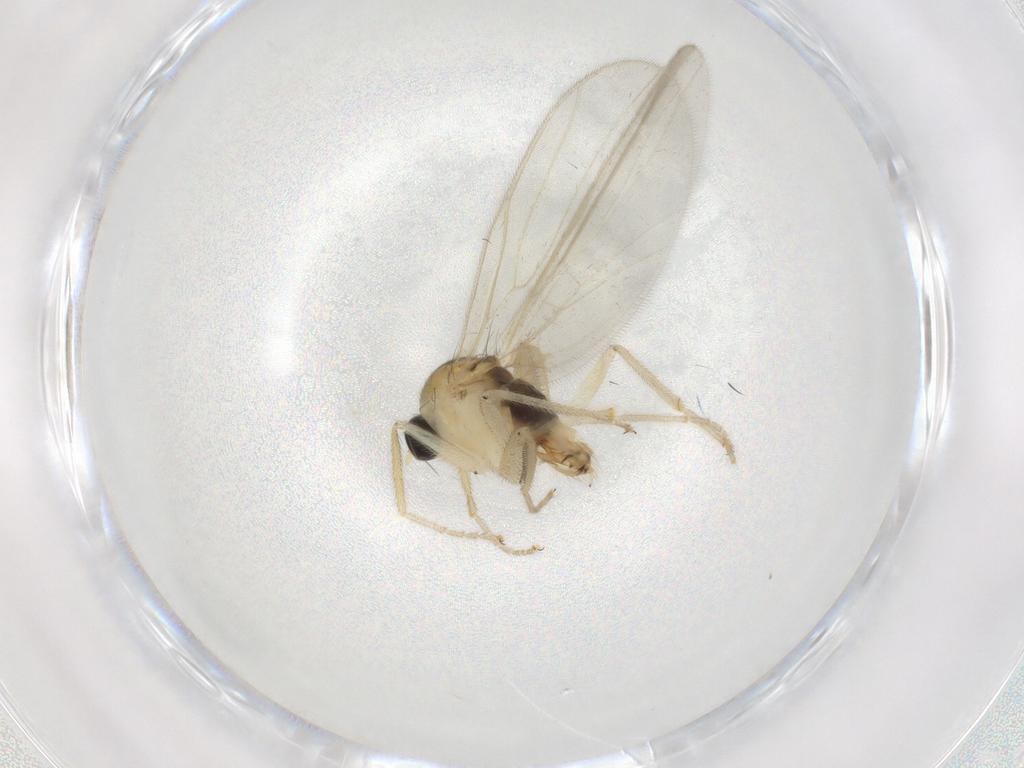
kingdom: Animalia
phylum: Arthropoda
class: Insecta
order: Diptera
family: Hybotidae
